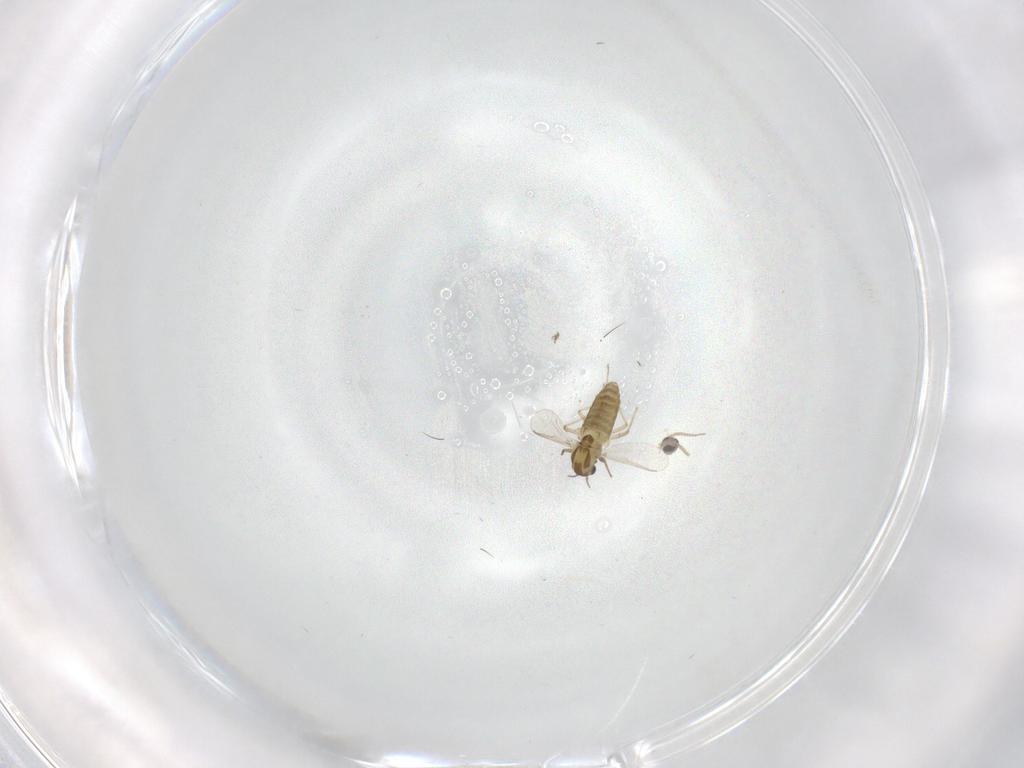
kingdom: Animalia
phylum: Arthropoda
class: Insecta
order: Diptera
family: Chironomidae
